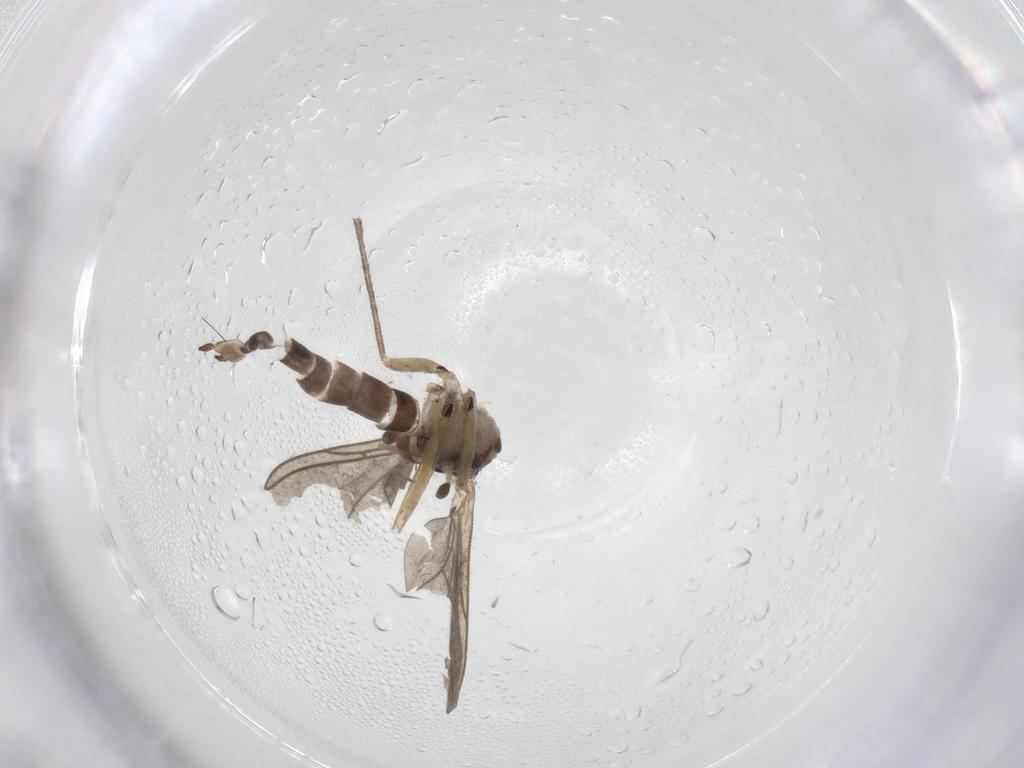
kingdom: Animalia
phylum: Arthropoda
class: Insecta
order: Diptera
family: Sciaridae
